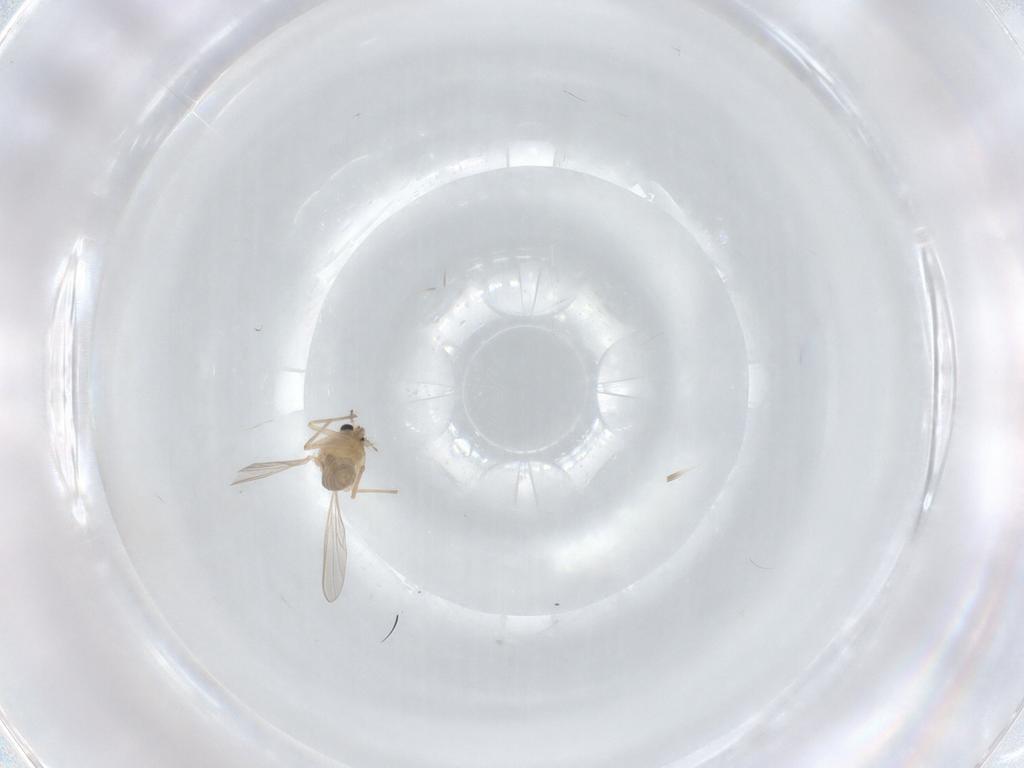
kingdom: Animalia
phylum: Arthropoda
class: Insecta
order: Diptera
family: Chironomidae
